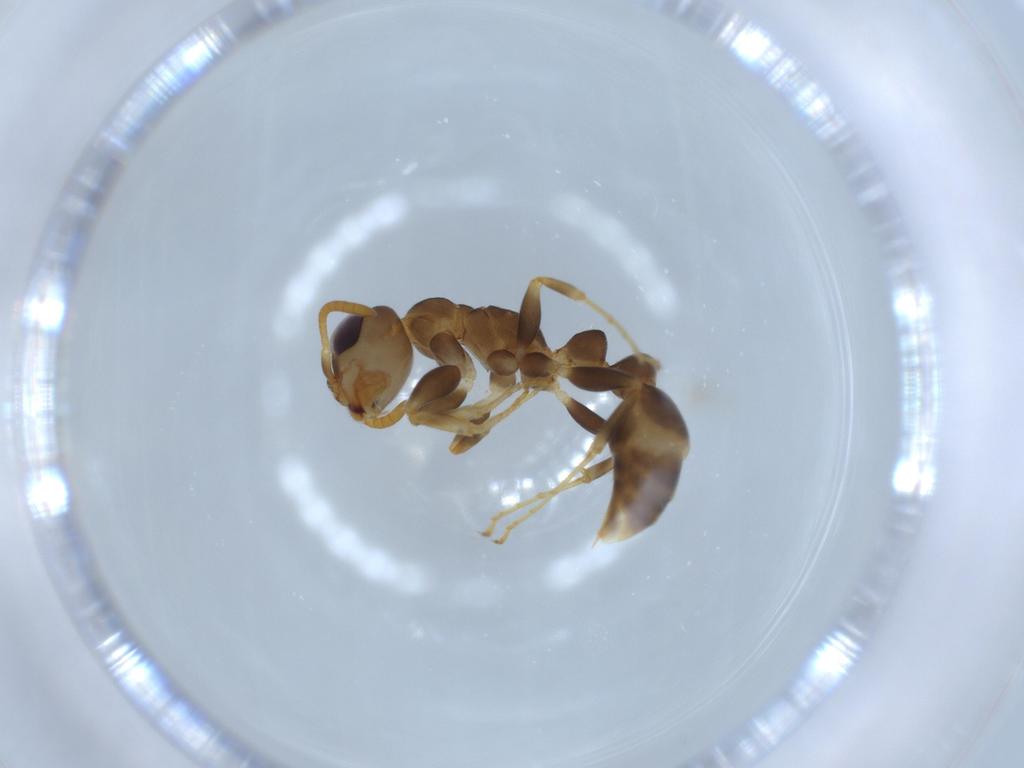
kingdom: Animalia
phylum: Arthropoda
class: Insecta
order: Hymenoptera
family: Formicidae
